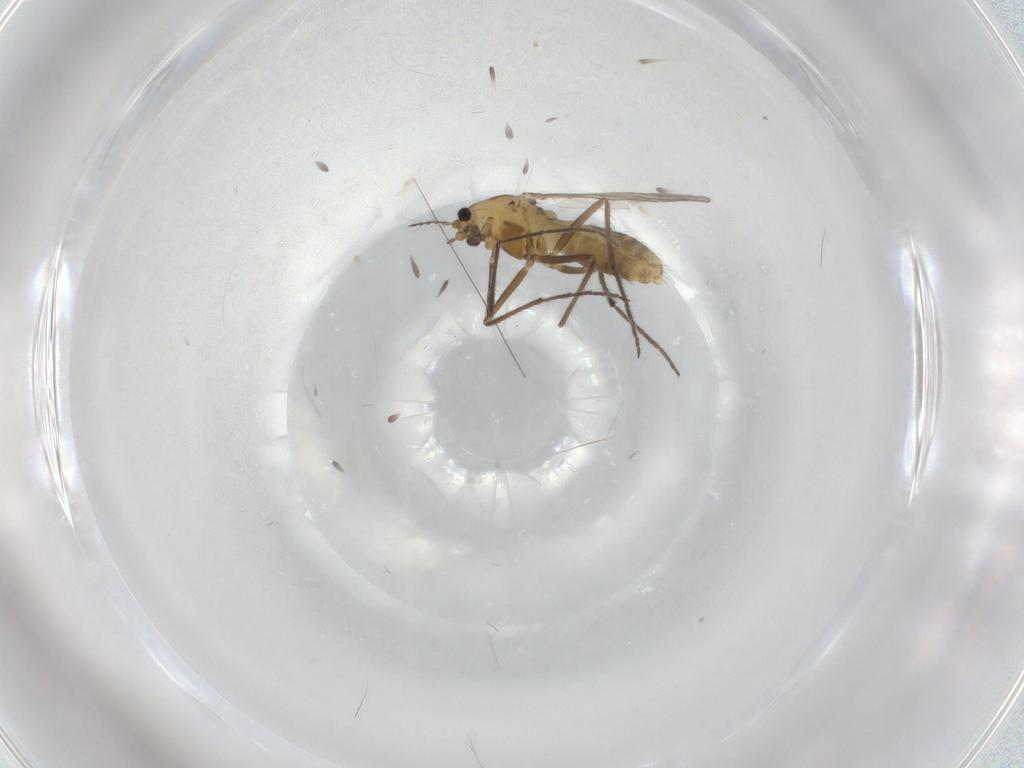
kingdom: Animalia
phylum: Arthropoda
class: Insecta
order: Diptera
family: Chironomidae
